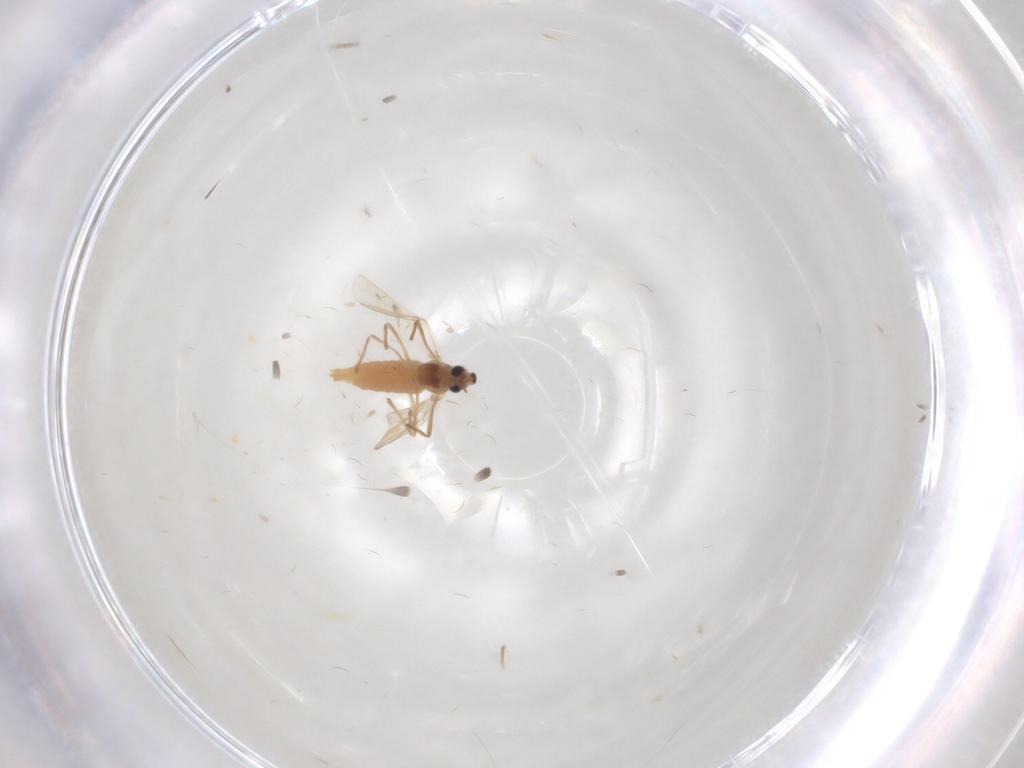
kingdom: Animalia
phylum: Arthropoda
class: Insecta
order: Diptera
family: Chironomidae
